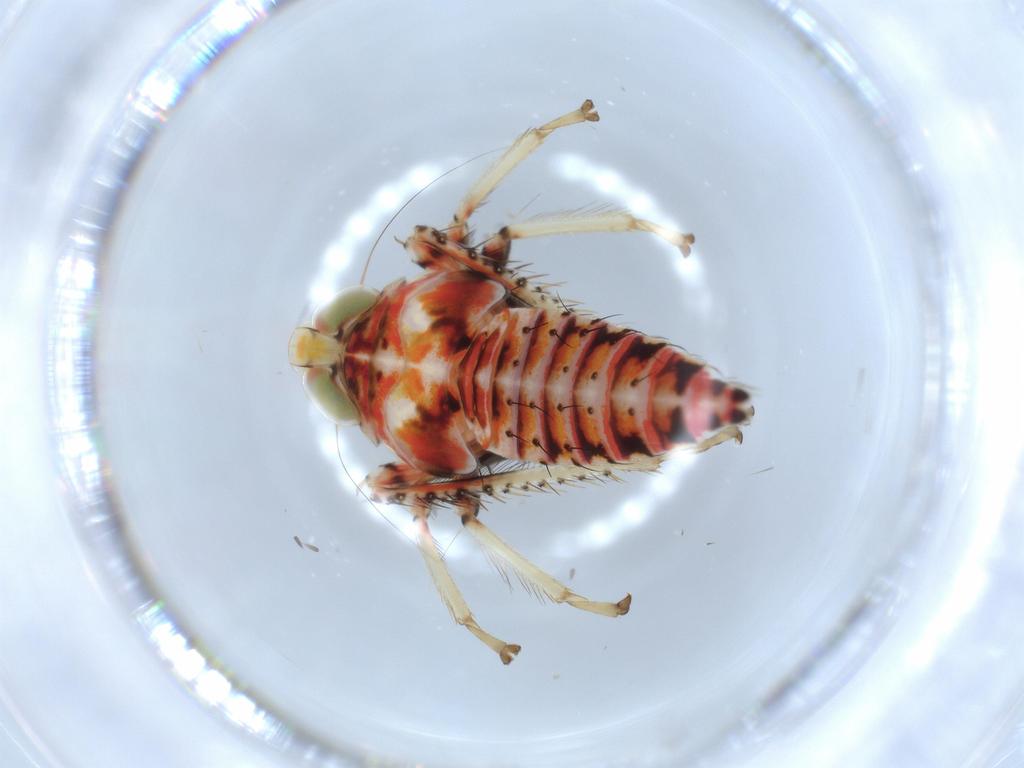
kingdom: Animalia
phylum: Arthropoda
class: Insecta
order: Hemiptera
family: Cicadellidae
